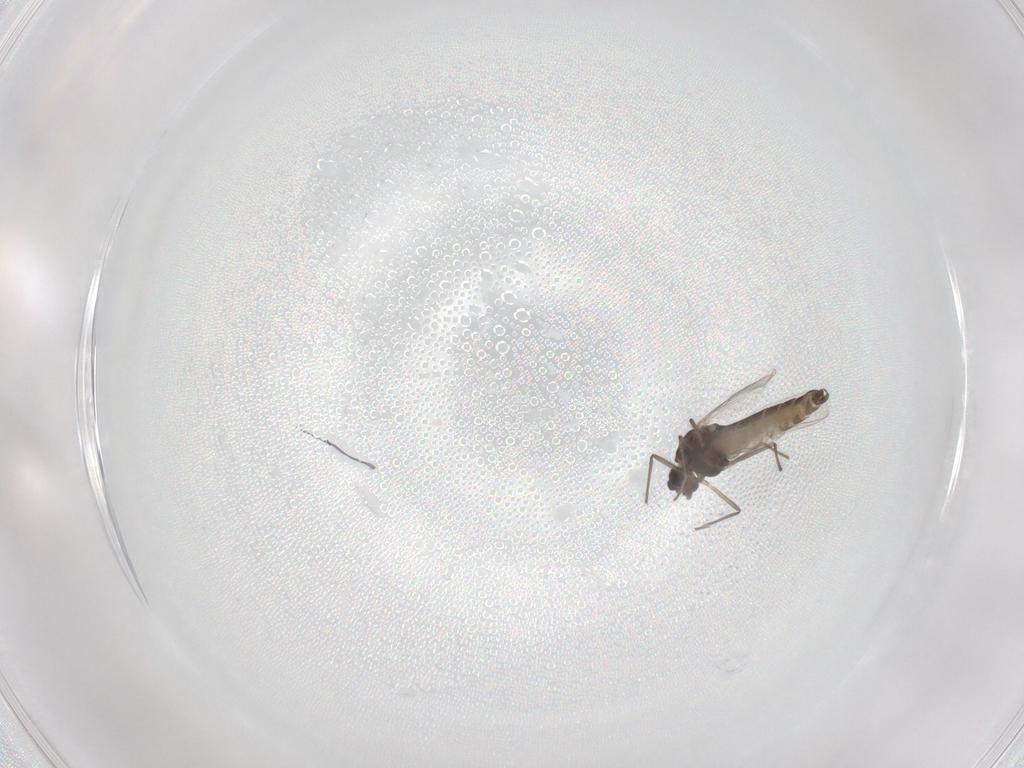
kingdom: Animalia
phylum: Arthropoda
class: Insecta
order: Diptera
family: Chironomidae
